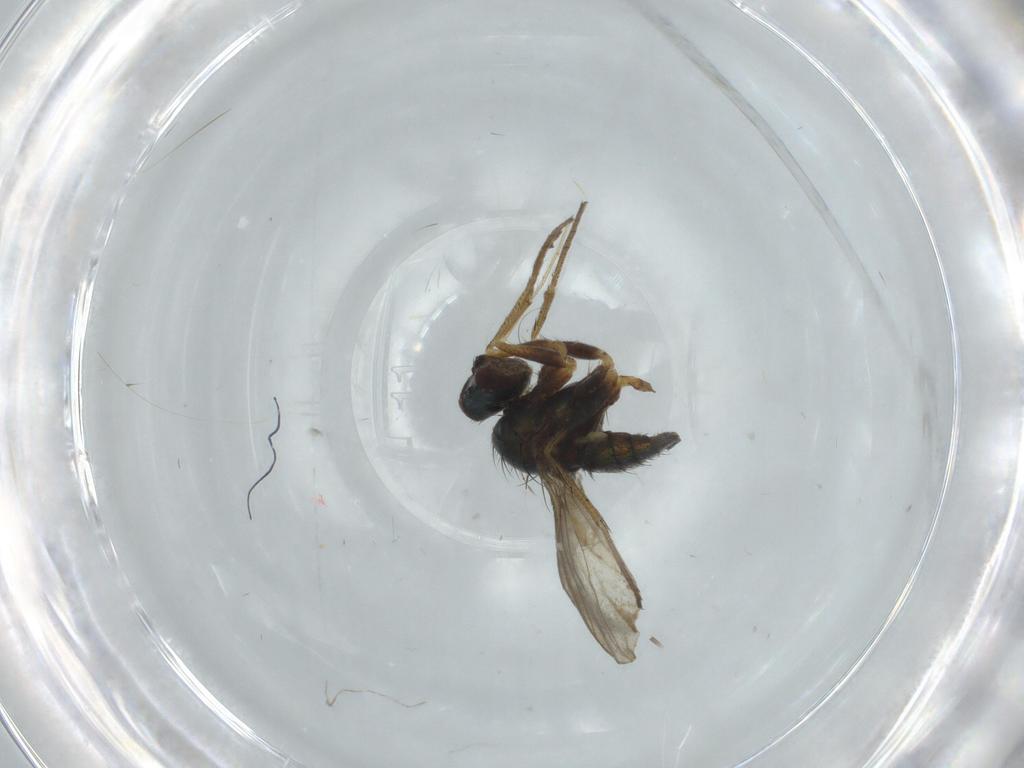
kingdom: Animalia
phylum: Arthropoda
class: Insecta
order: Diptera
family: Chironomidae
